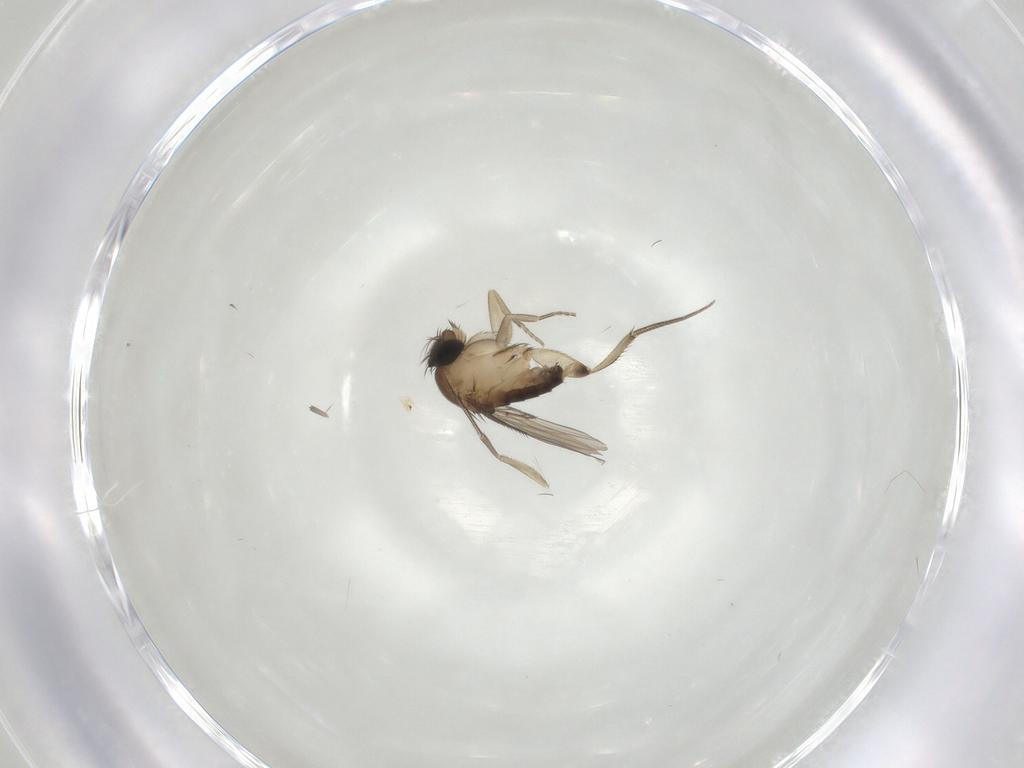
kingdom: Animalia
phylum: Arthropoda
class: Insecta
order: Diptera
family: Phoridae
